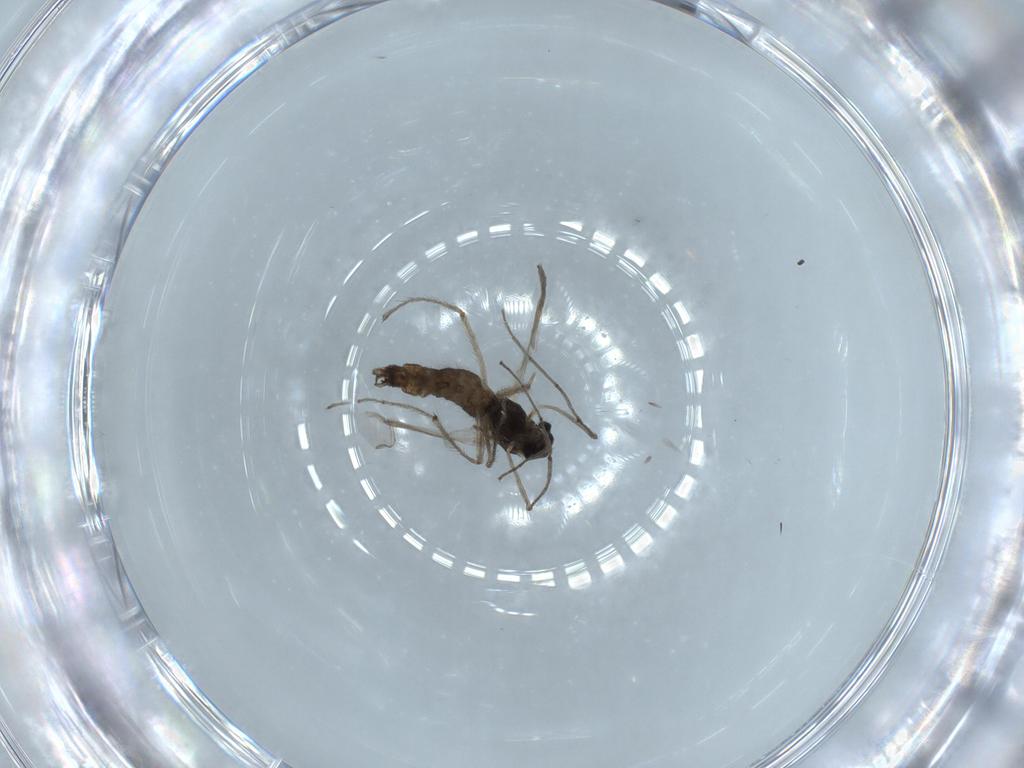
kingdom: Animalia
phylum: Arthropoda
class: Insecta
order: Diptera
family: Chironomidae
